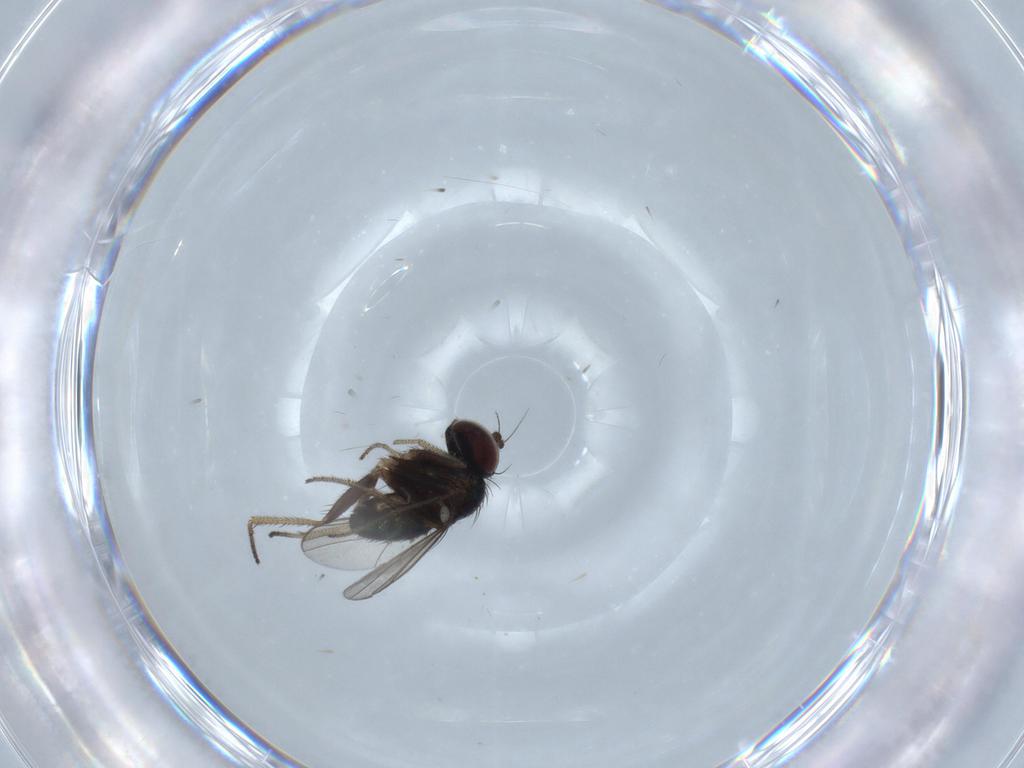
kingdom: Animalia
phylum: Arthropoda
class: Insecta
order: Diptera
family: Dolichopodidae
